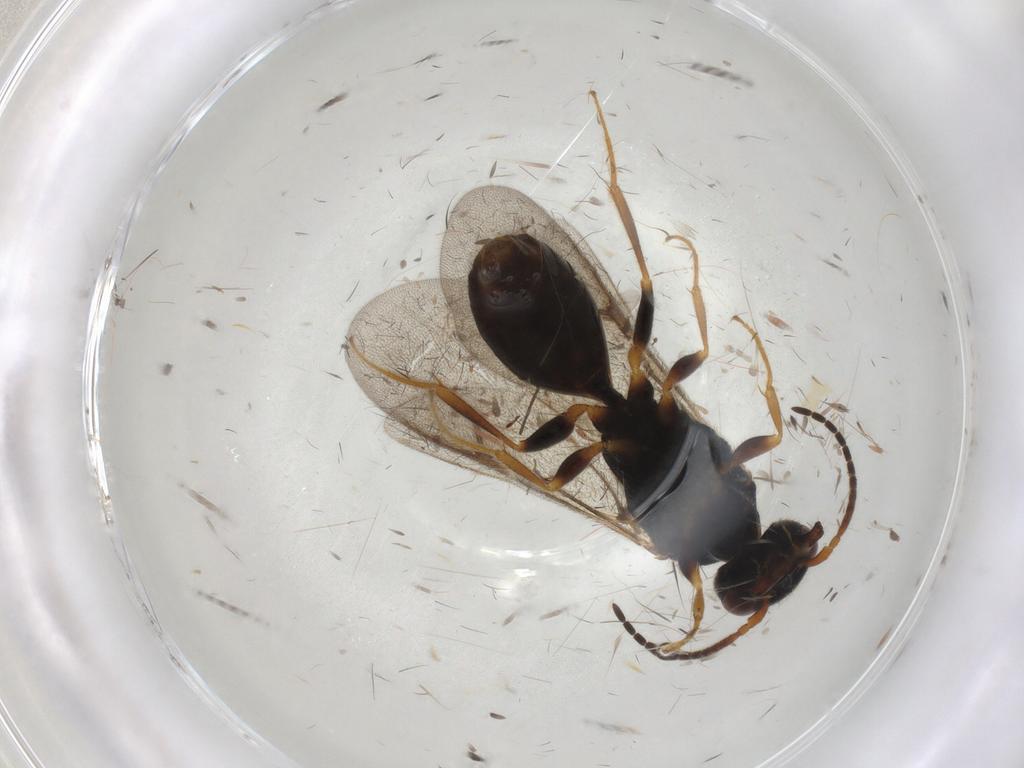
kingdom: Animalia
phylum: Arthropoda
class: Insecta
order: Hymenoptera
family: Bethylidae
